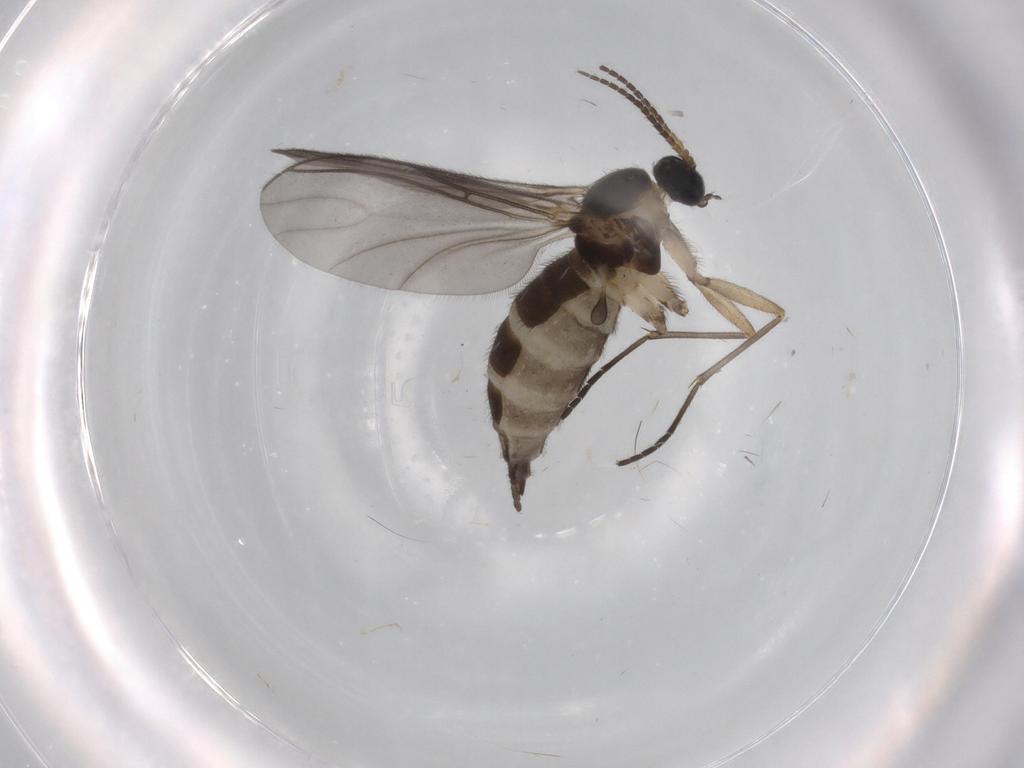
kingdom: Animalia
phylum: Arthropoda
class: Insecta
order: Diptera
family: Sciaridae
